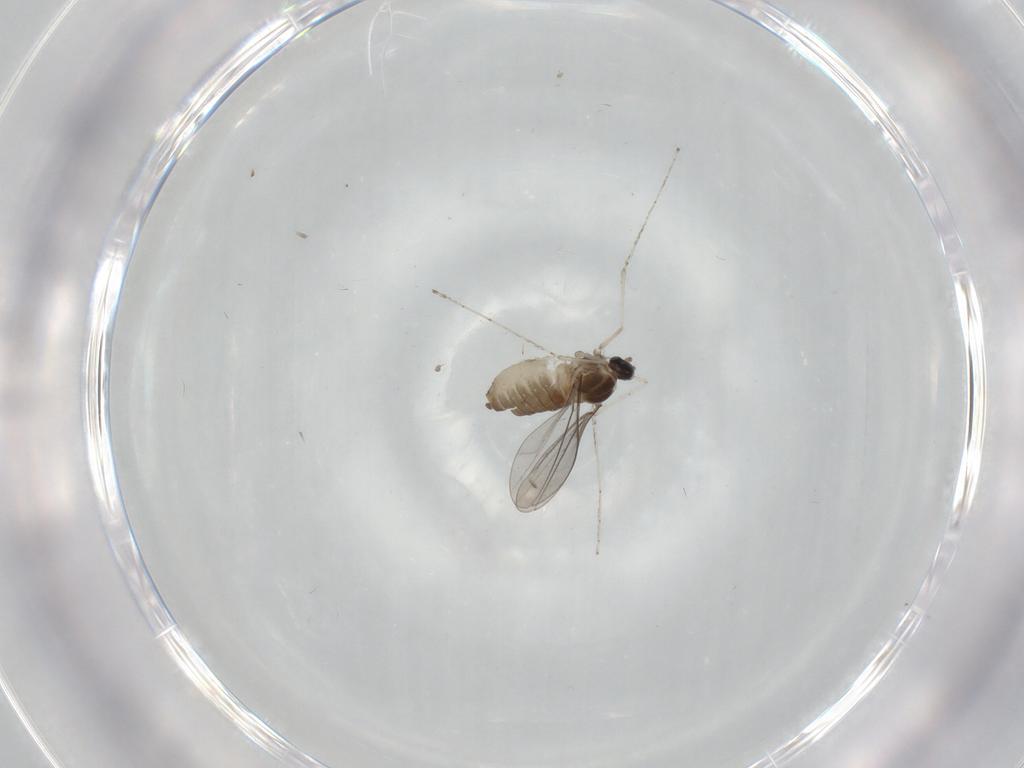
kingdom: Animalia
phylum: Arthropoda
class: Insecta
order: Diptera
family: Cecidomyiidae
